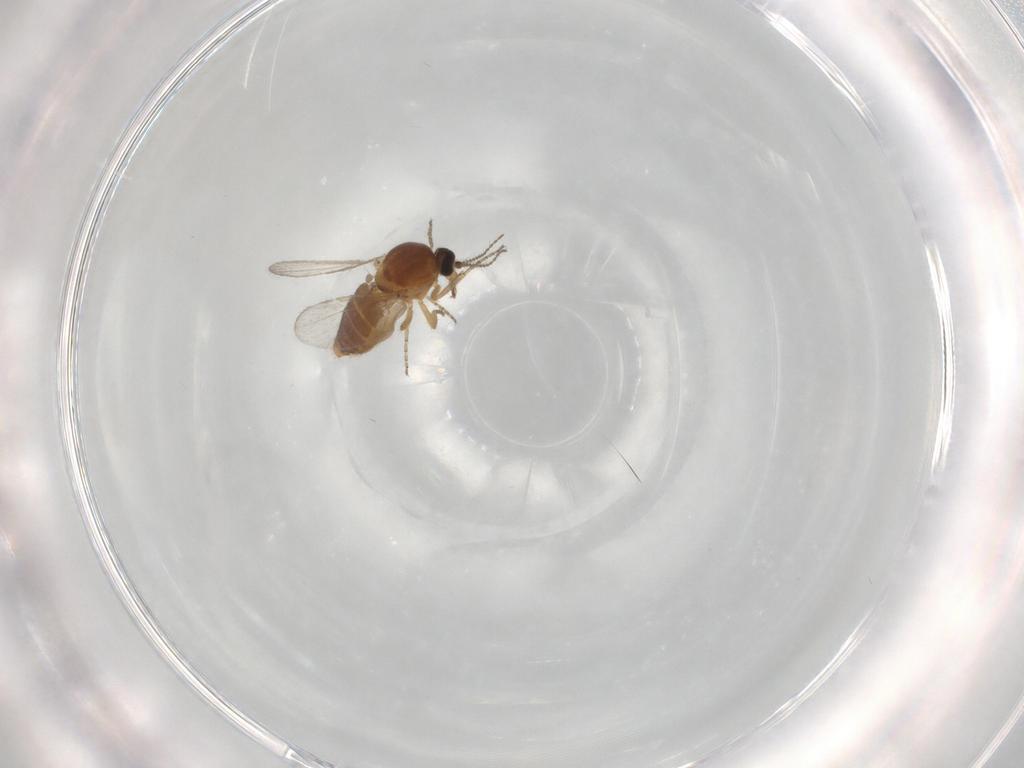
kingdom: Animalia
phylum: Arthropoda
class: Insecta
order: Diptera
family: Ceratopogonidae
